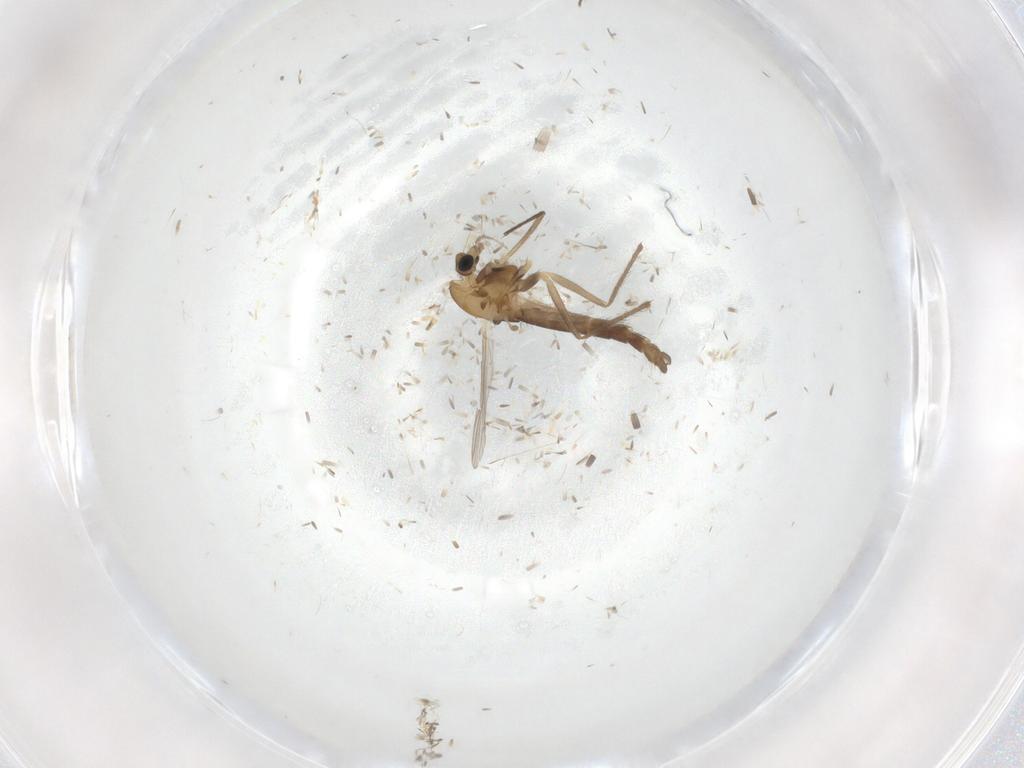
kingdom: Animalia
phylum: Arthropoda
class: Insecta
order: Diptera
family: Chironomidae
